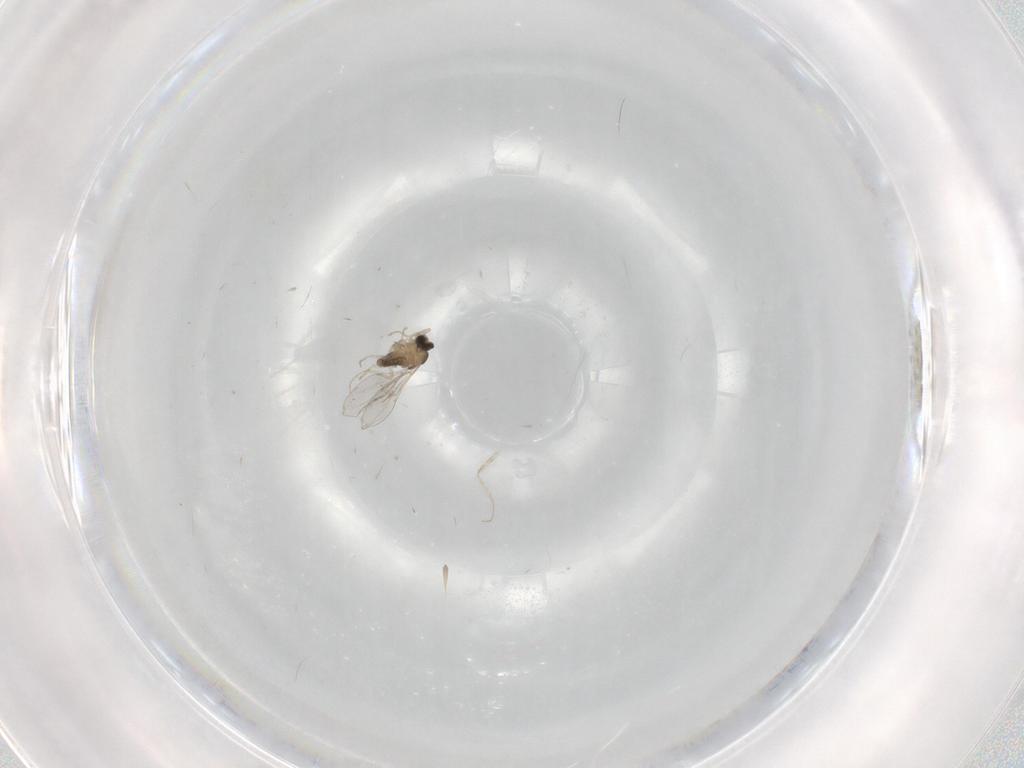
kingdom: Animalia
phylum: Arthropoda
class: Insecta
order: Diptera
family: Cecidomyiidae
